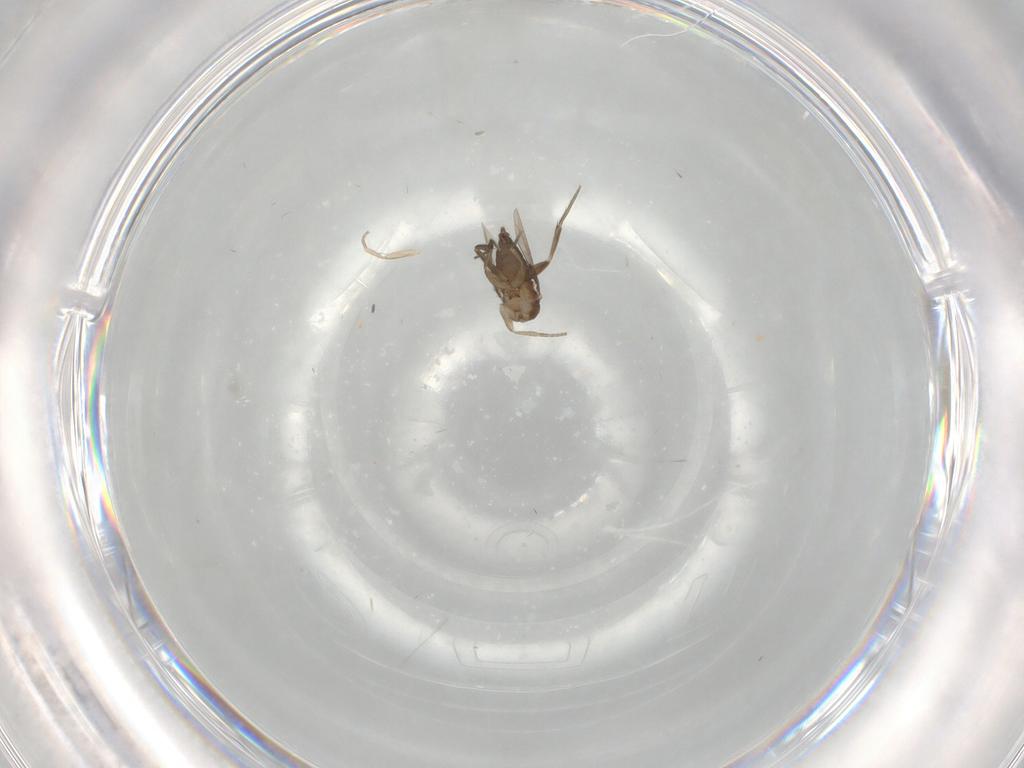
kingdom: Animalia
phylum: Arthropoda
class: Insecta
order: Diptera
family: Phoridae
